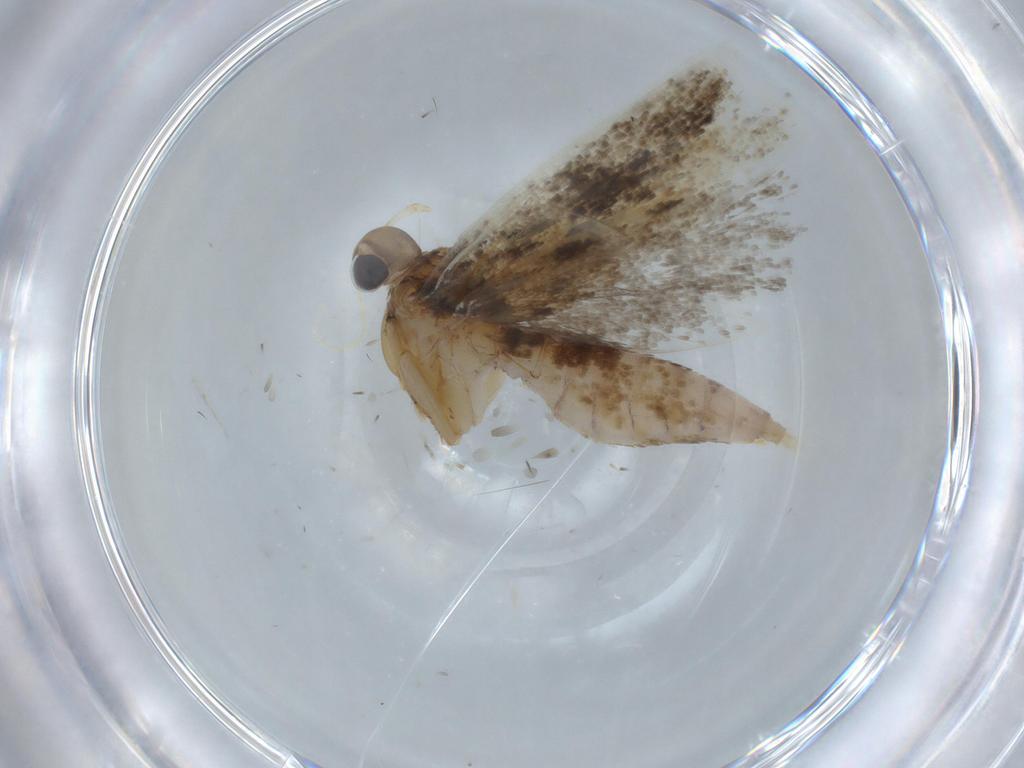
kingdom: Animalia
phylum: Arthropoda
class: Insecta
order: Lepidoptera
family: Gelechiidae
